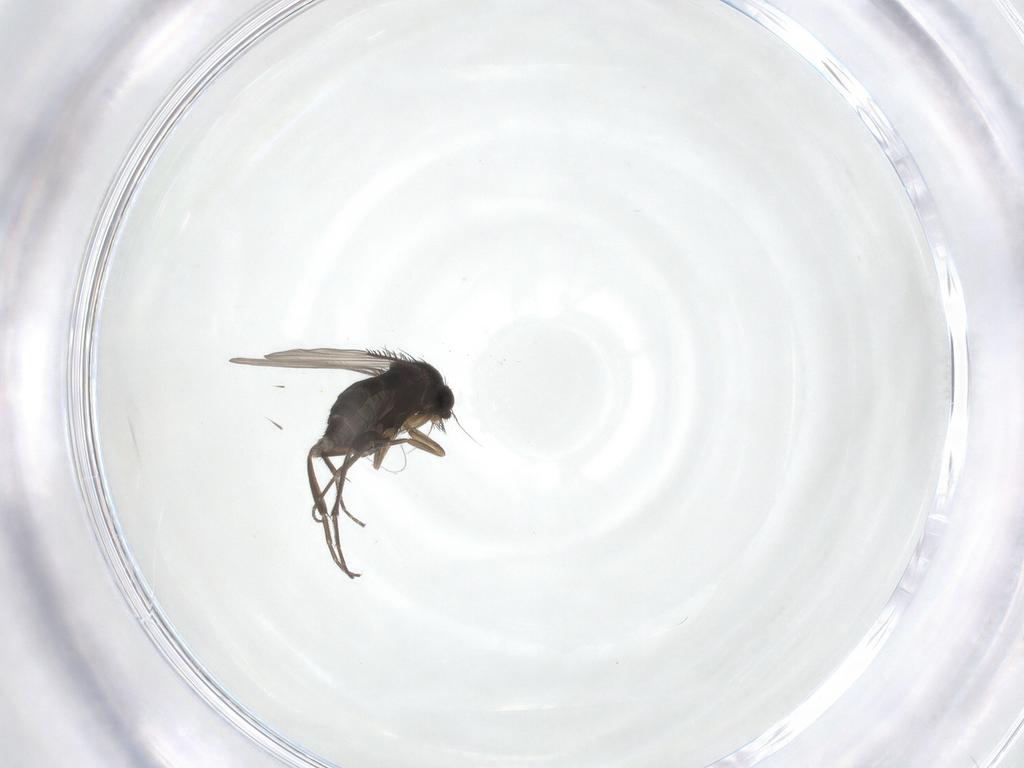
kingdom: Animalia
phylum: Arthropoda
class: Insecta
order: Diptera
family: Phoridae
